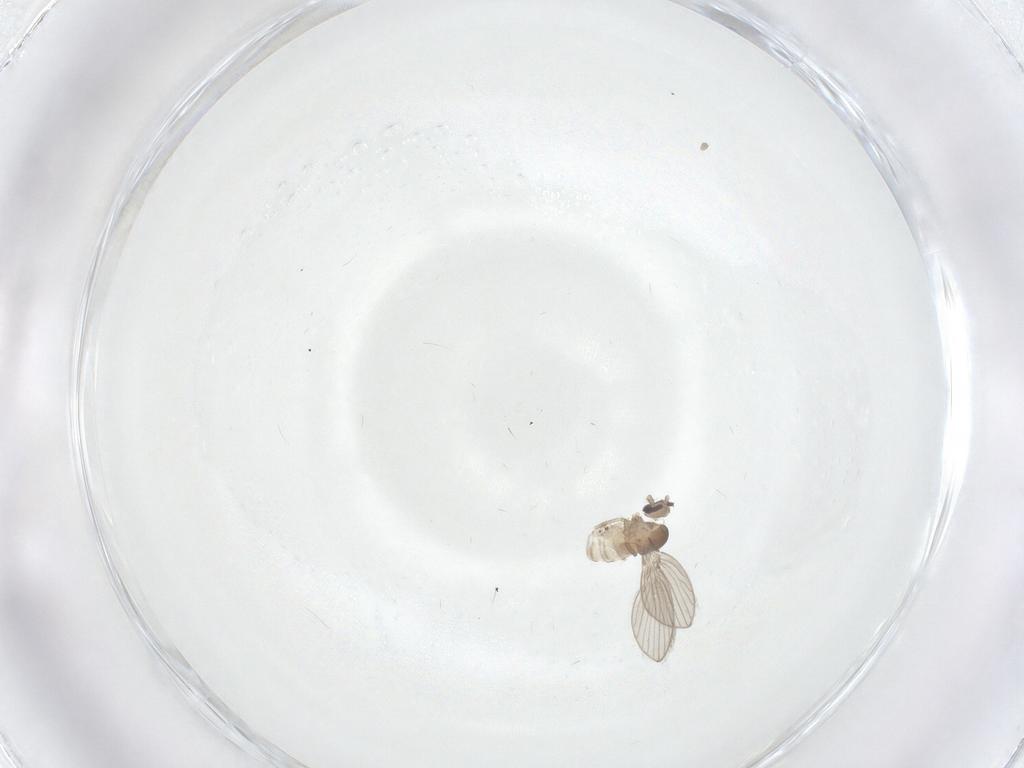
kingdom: Animalia
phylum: Arthropoda
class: Insecta
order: Diptera
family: Psychodidae
